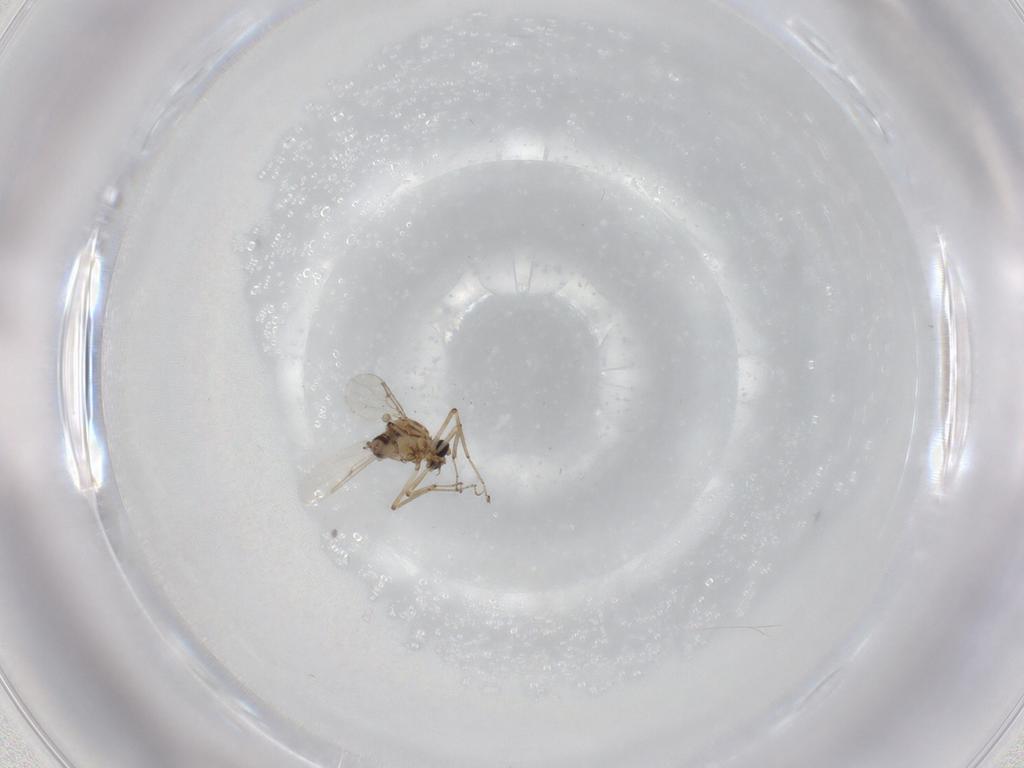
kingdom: Animalia
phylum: Arthropoda
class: Insecta
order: Diptera
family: Ceratopogonidae
